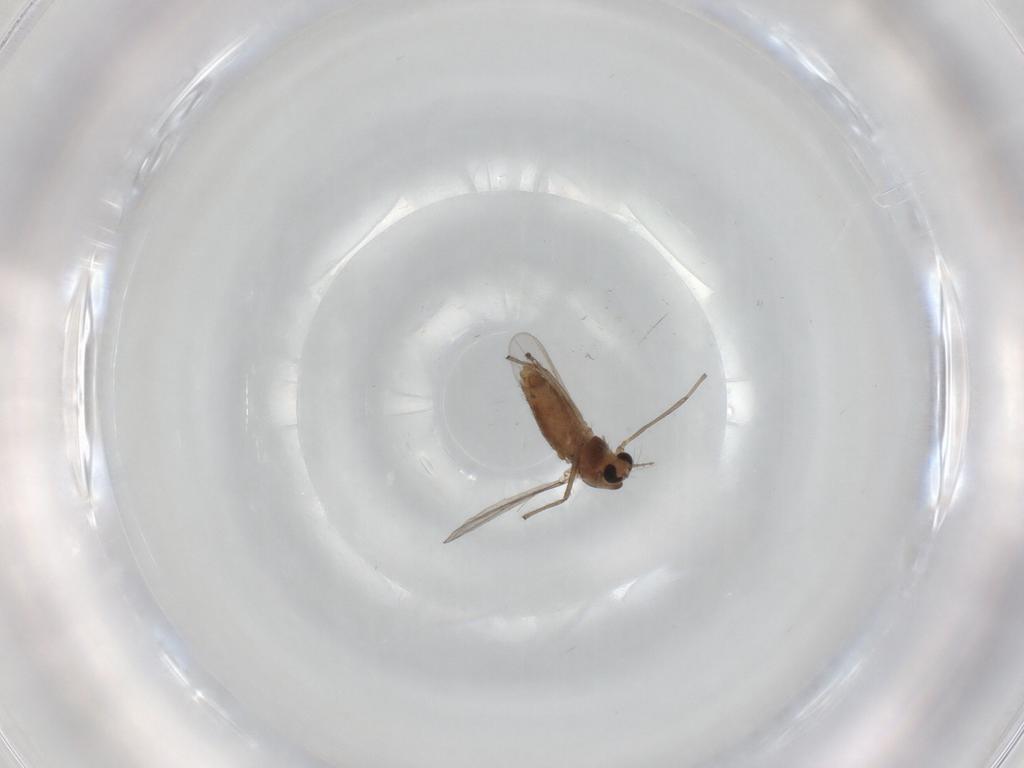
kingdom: Animalia
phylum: Arthropoda
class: Insecta
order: Diptera
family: Chironomidae
